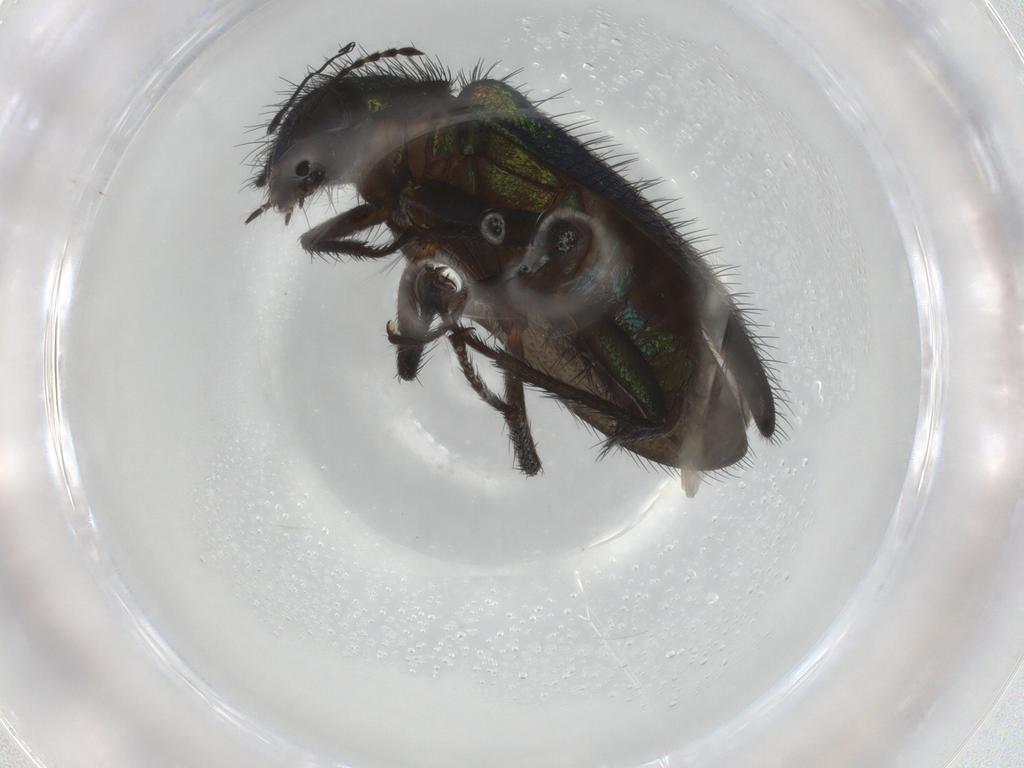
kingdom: Animalia
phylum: Arthropoda
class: Insecta
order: Coleoptera
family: Melyridae
